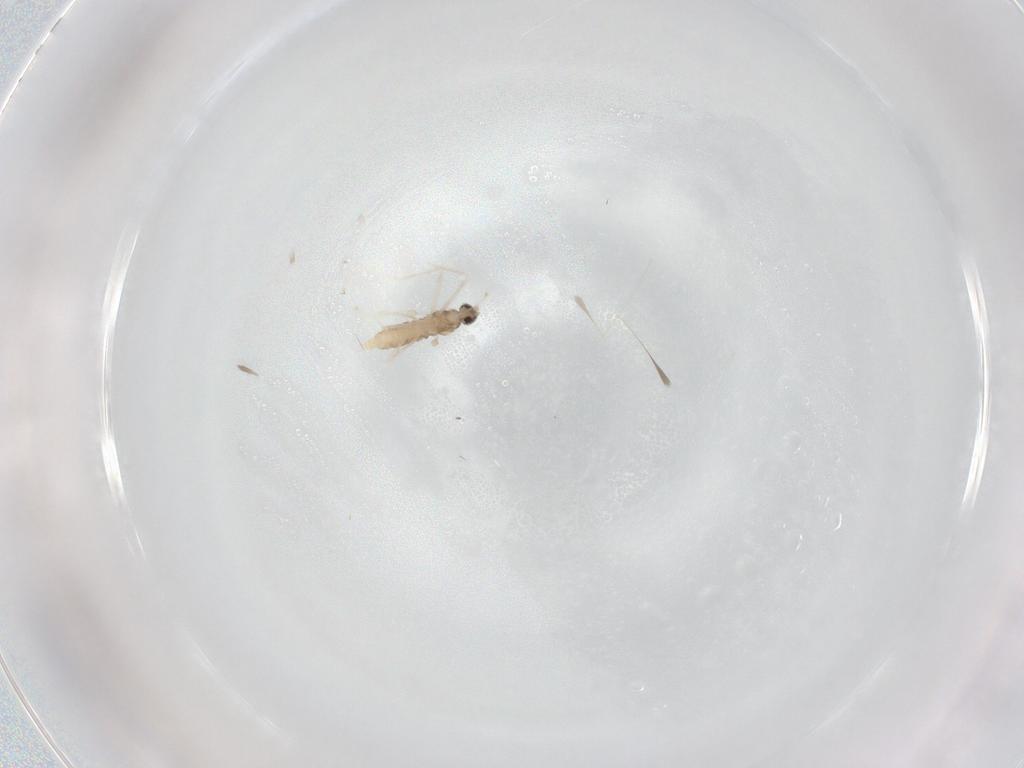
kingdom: Animalia
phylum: Arthropoda
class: Insecta
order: Diptera
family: Cecidomyiidae
